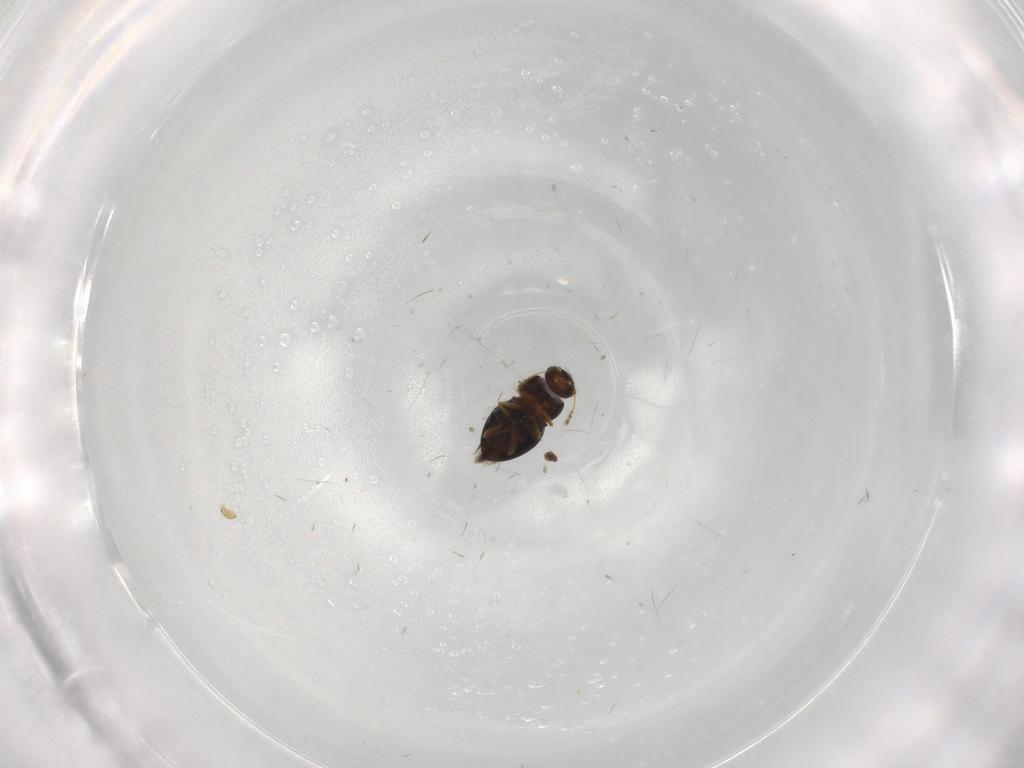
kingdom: Animalia
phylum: Arthropoda
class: Insecta
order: Coleoptera
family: Ptiliidae
